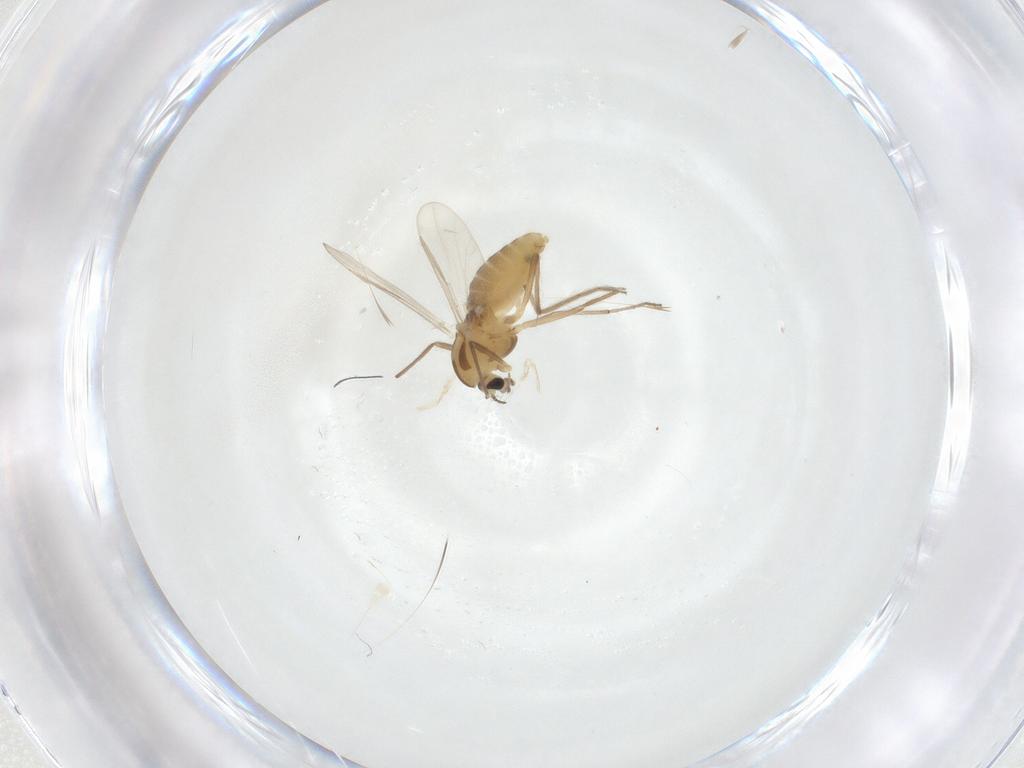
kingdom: Animalia
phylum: Arthropoda
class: Insecta
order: Diptera
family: Chironomidae
